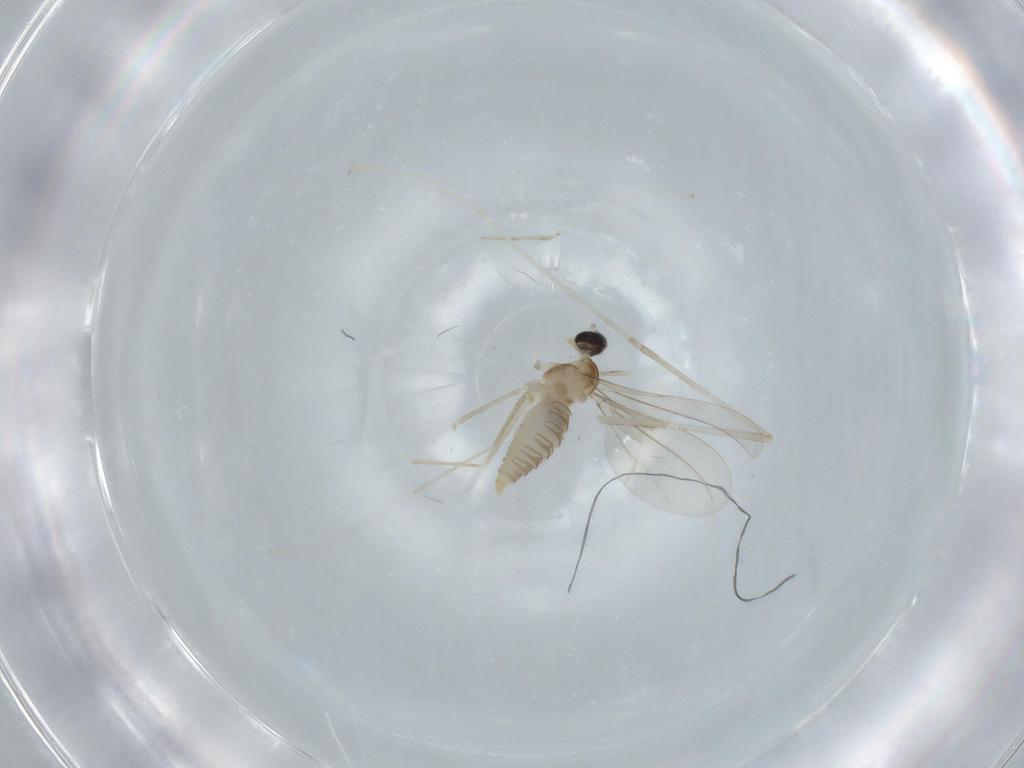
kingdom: Animalia
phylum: Arthropoda
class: Insecta
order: Diptera
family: Cecidomyiidae
